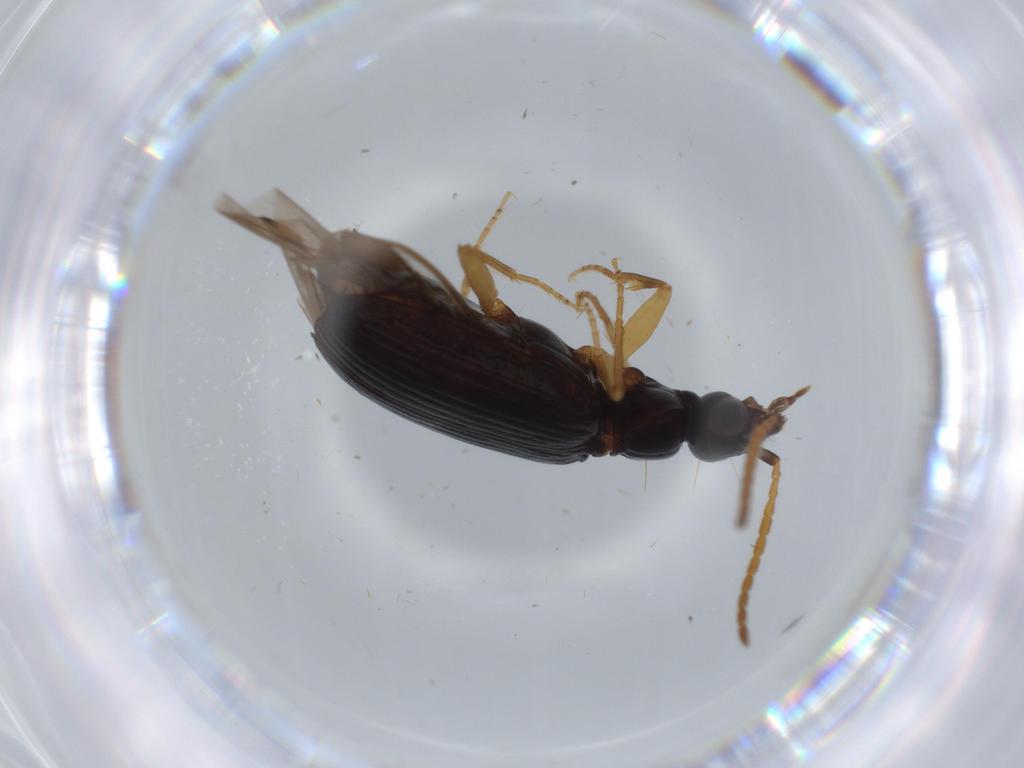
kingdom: Animalia
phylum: Arthropoda
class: Insecta
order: Coleoptera
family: Carabidae
